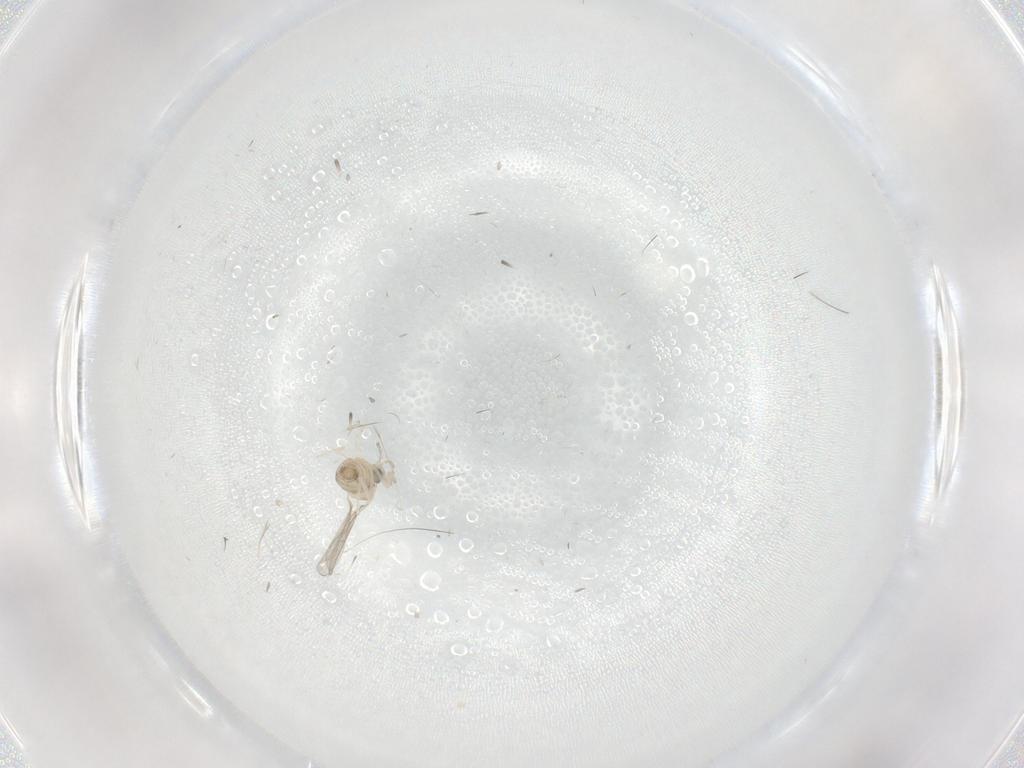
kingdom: Animalia
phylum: Arthropoda
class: Insecta
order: Diptera
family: Cecidomyiidae
